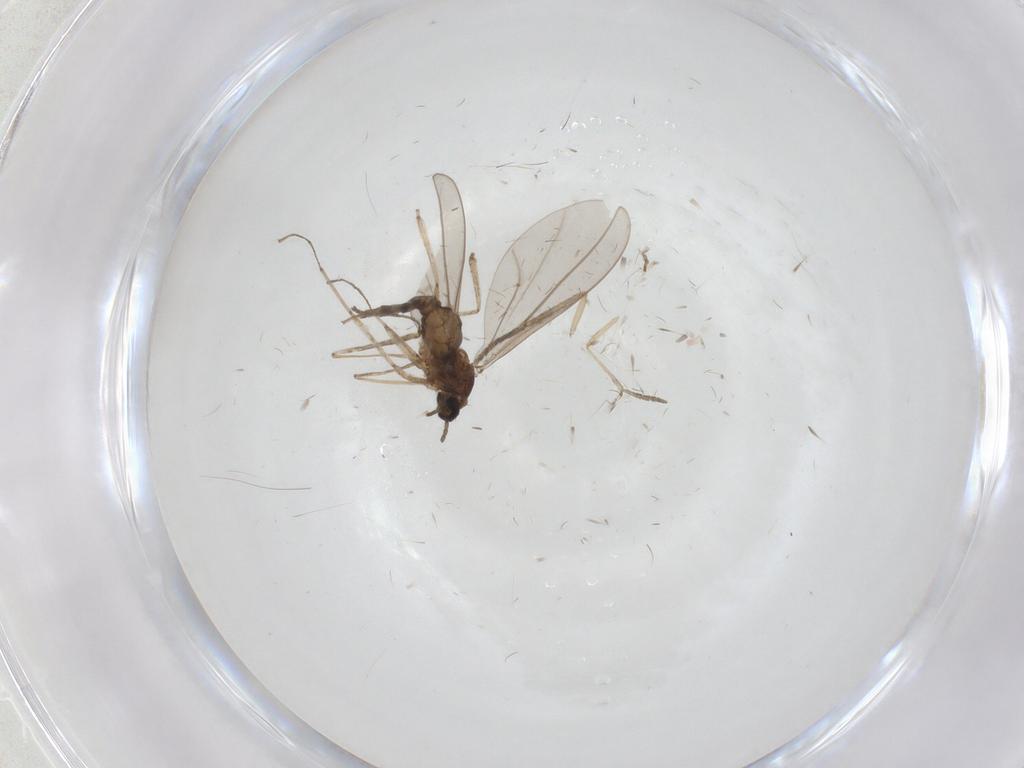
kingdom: Animalia
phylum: Arthropoda
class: Insecta
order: Diptera
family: Cecidomyiidae
